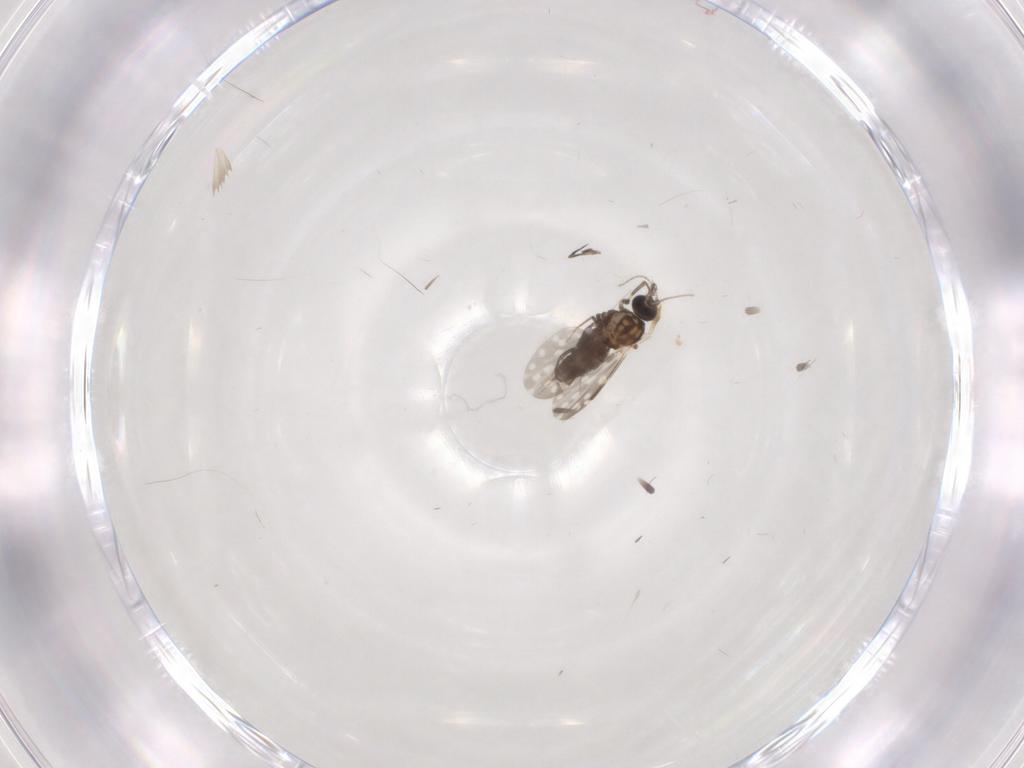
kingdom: Animalia
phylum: Arthropoda
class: Insecta
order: Diptera
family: Ceratopogonidae
